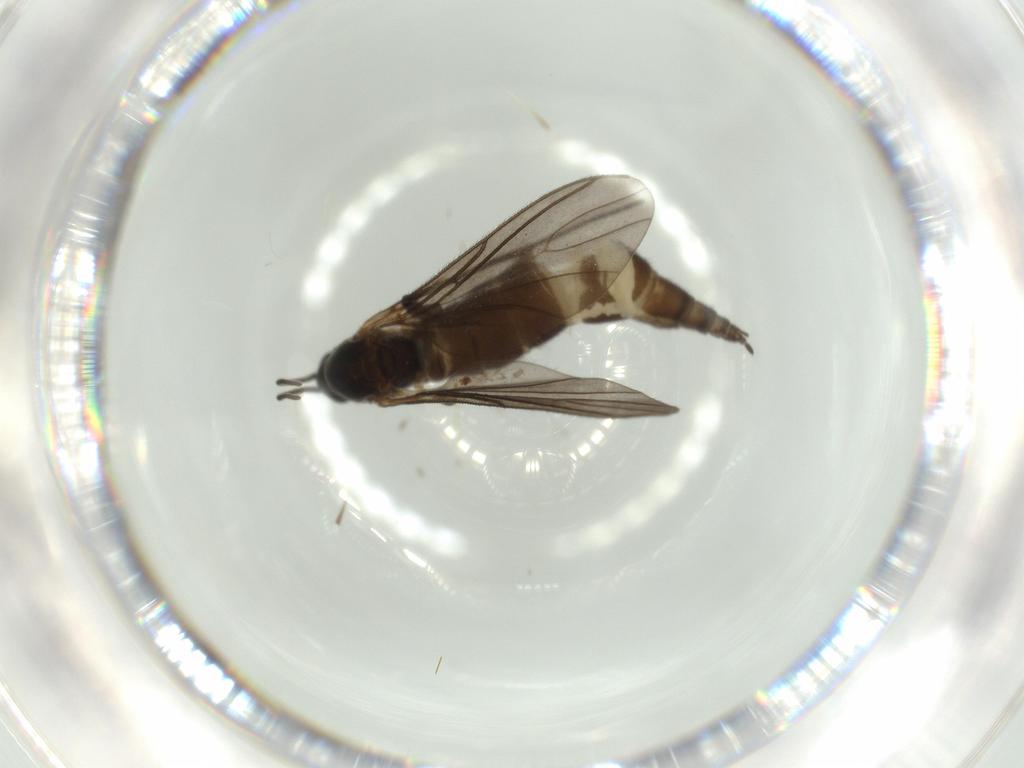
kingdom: Animalia
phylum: Arthropoda
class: Insecta
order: Diptera
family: Sciaridae
